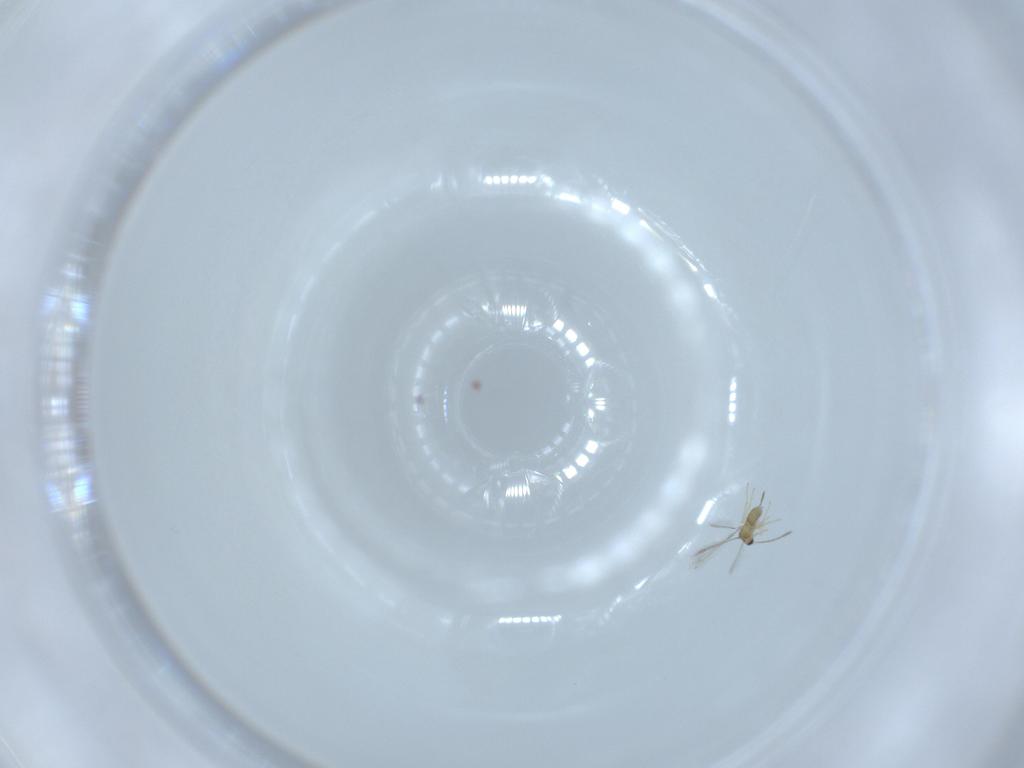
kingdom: Animalia
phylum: Arthropoda
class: Insecta
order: Hymenoptera
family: Mymaridae
